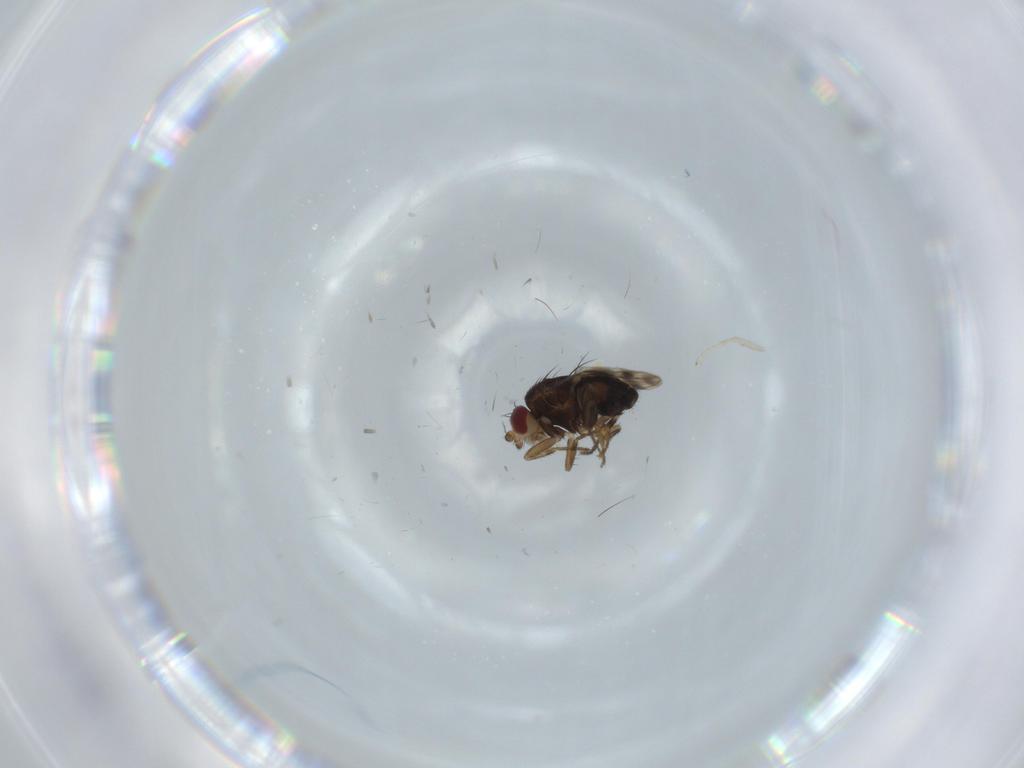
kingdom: Animalia
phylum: Arthropoda
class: Insecta
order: Diptera
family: Sphaeroceridae
